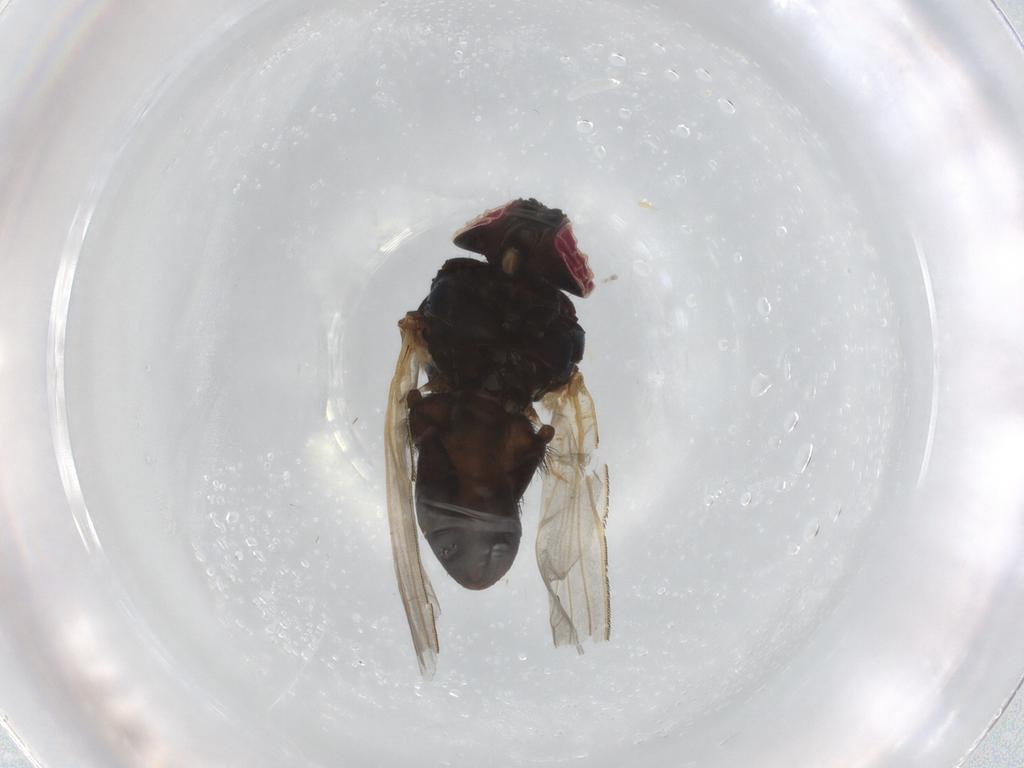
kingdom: Animalia
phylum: Arthropoda
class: Insecta
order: Diptera
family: Lonchaeidae
